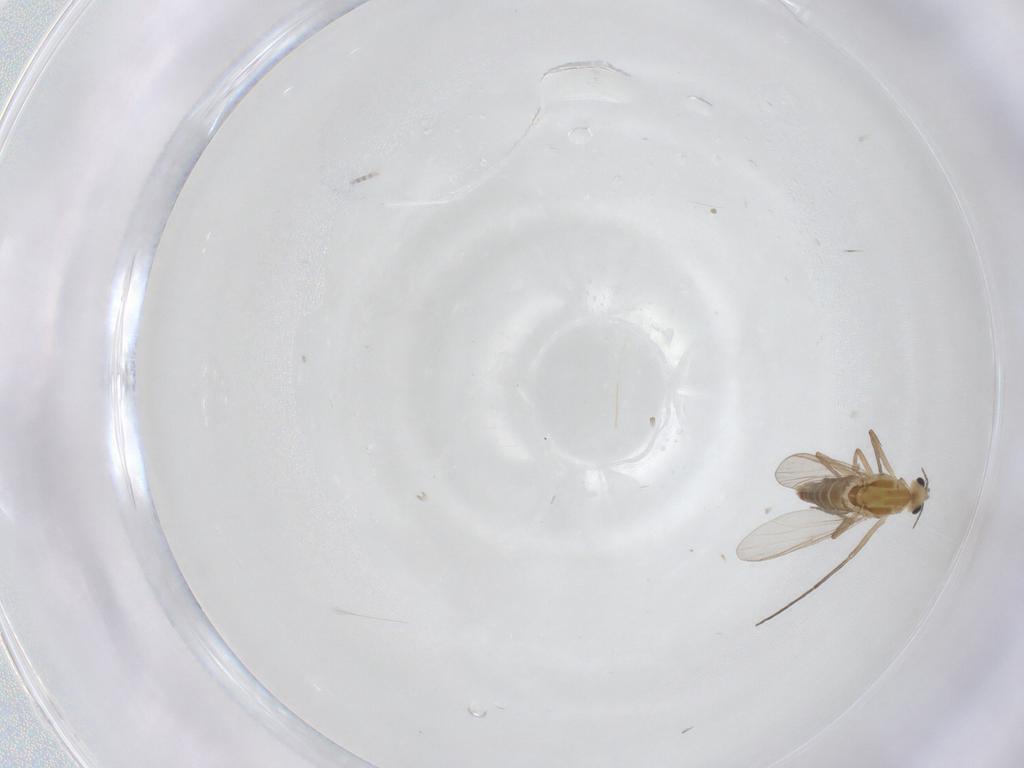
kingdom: Animalia
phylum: Arthropoda
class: Insecta
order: Diptera
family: Chironomidae
